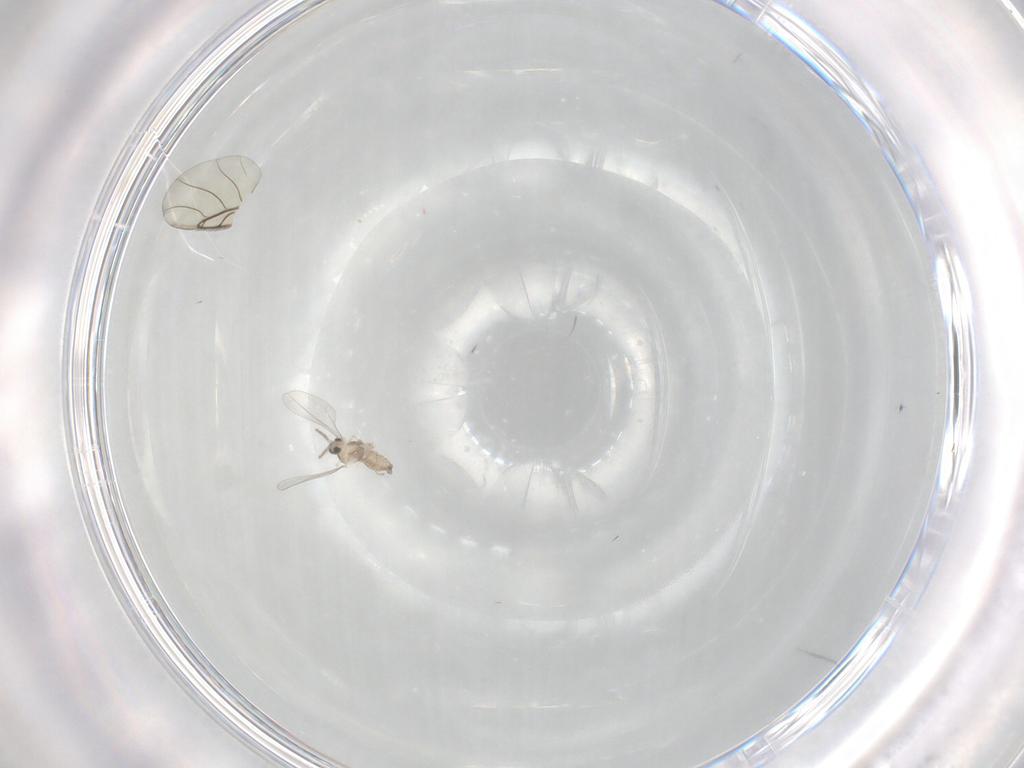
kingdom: Animalia
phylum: Arthropoda
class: Insecta
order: Diptera
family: Cecidomyiidae
